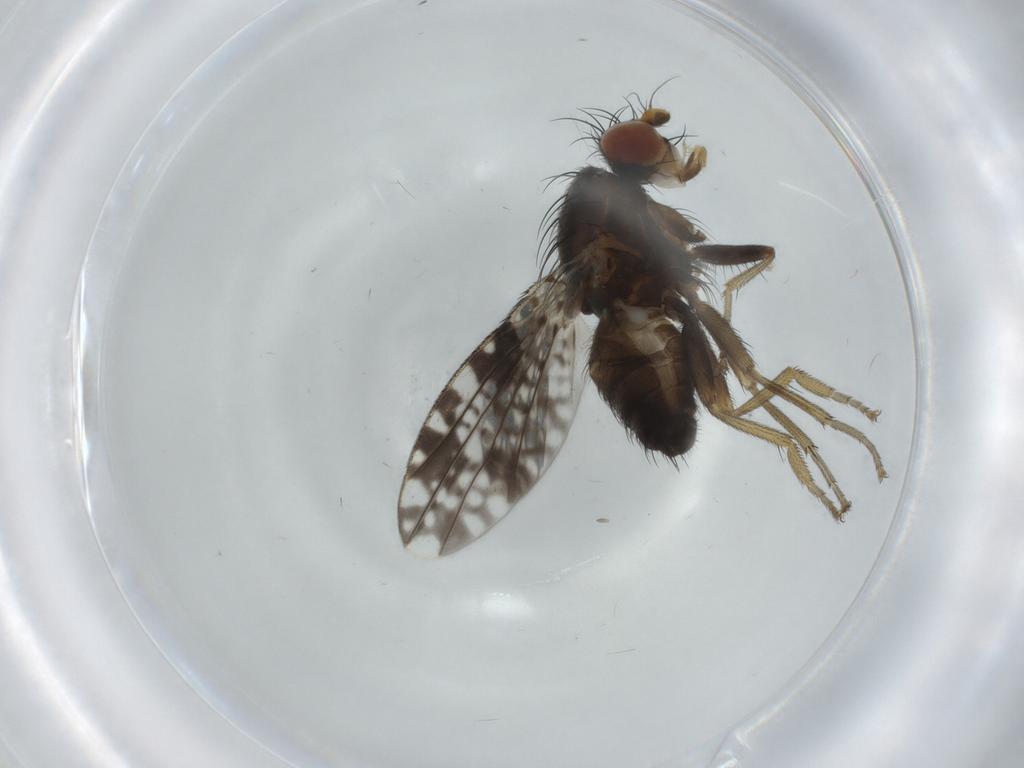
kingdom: Animalia
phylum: Arthropoda
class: Insecta
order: Diptera
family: Tephritidae
